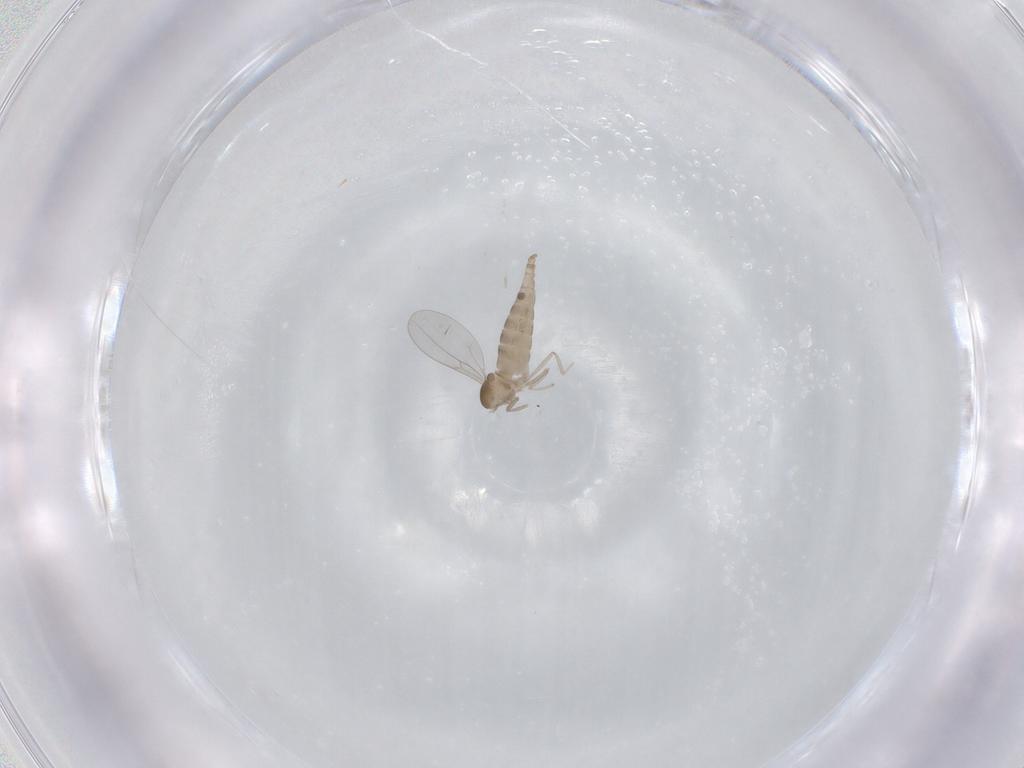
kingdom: Animalia
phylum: Arthropoda
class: Insecta
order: Diptera
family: Cecidomyiidae
